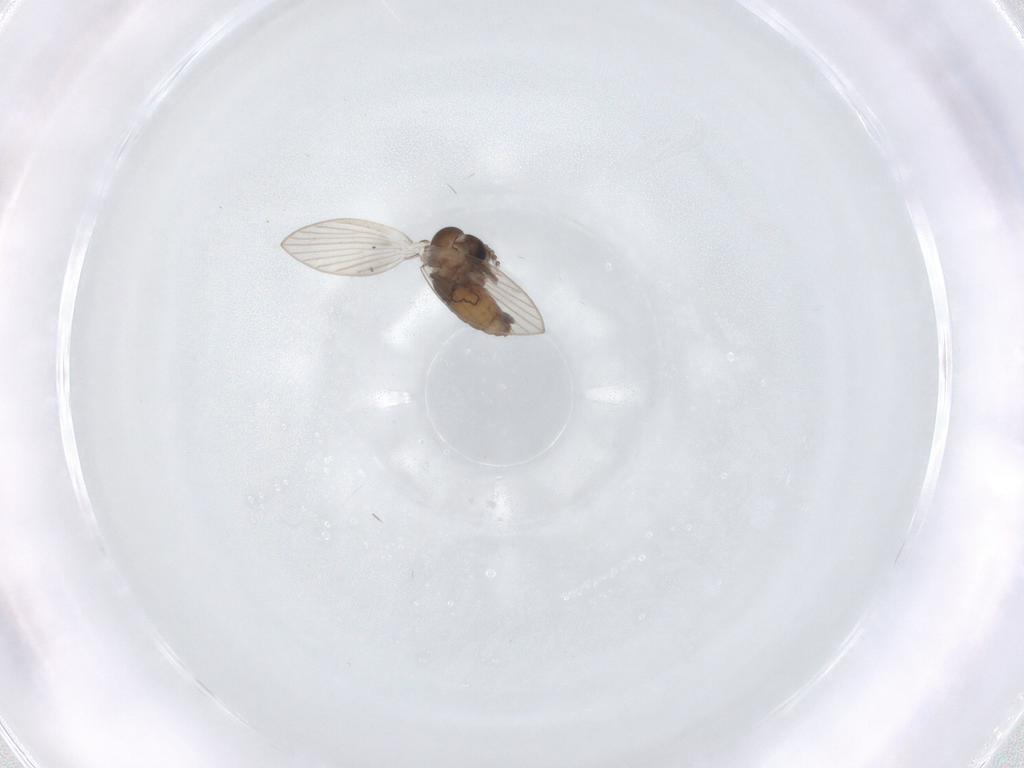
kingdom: Animalia
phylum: Arthropoda
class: Insecta
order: Diptera
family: Psychodidae
